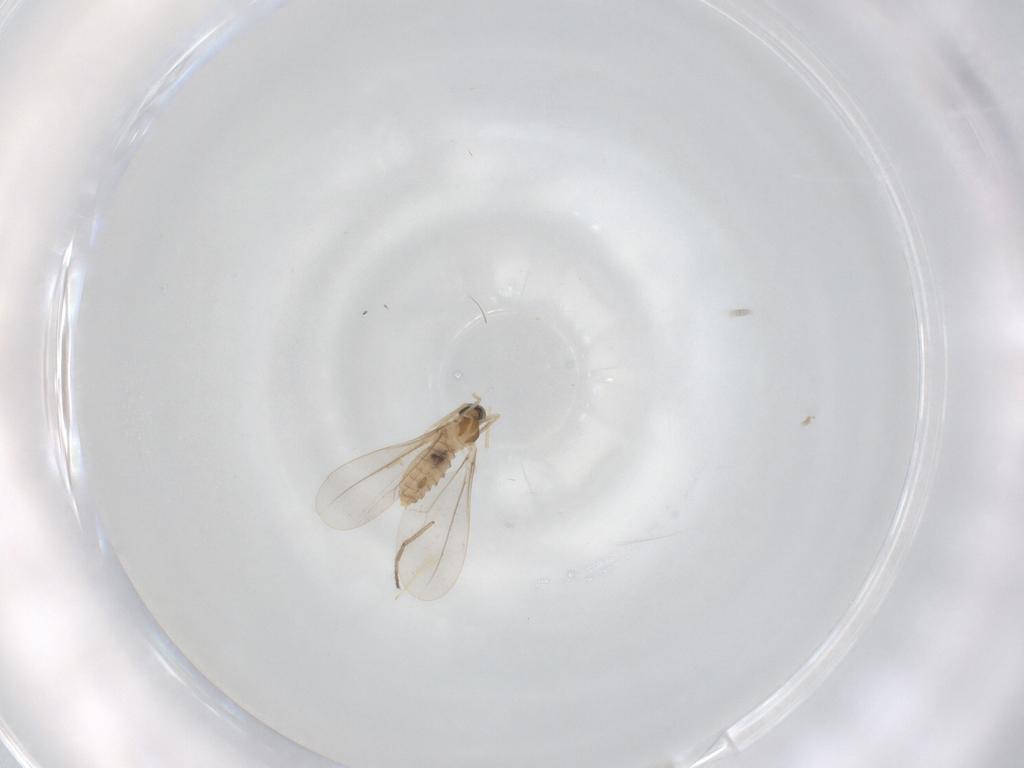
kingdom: Animalia
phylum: Arthropoda
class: Insecta
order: Diptera
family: Cecidomyiidae
